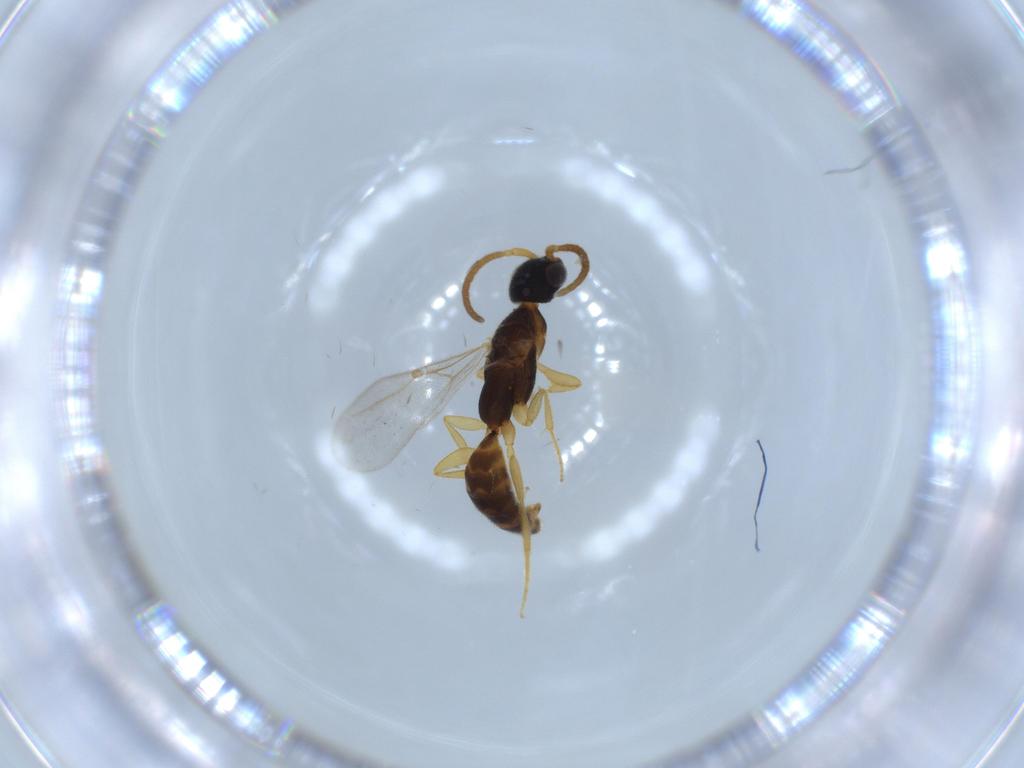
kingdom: Animalia
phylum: Arthropoda
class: Insecta
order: Hymenoptera
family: Bethylidae
